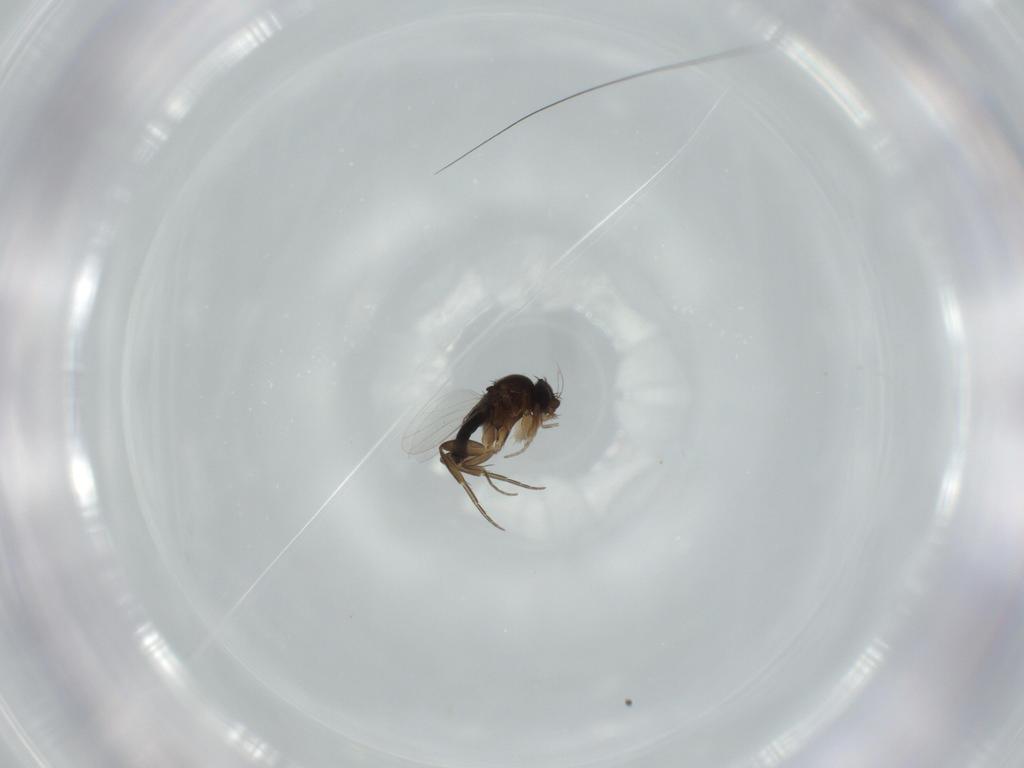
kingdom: Animalia
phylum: Arthropoda
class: Insecta
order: Diptera
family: Phoridae
